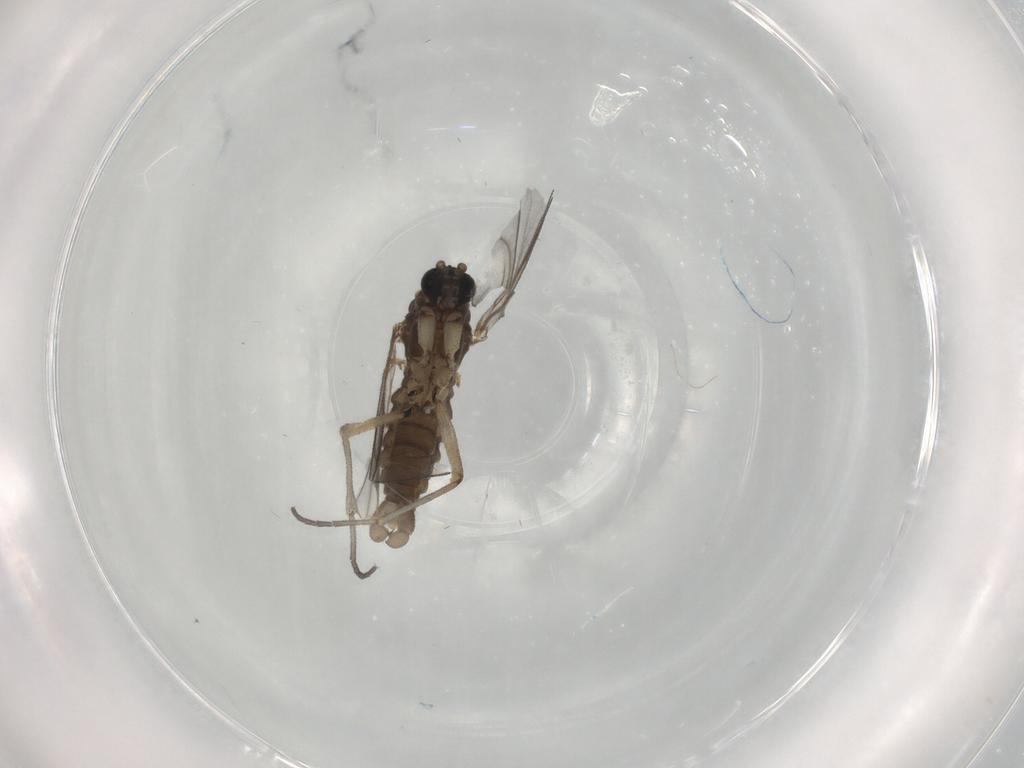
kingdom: Animalia
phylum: Arthropoda
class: Insecta
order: Diptera
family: Sciaridae
